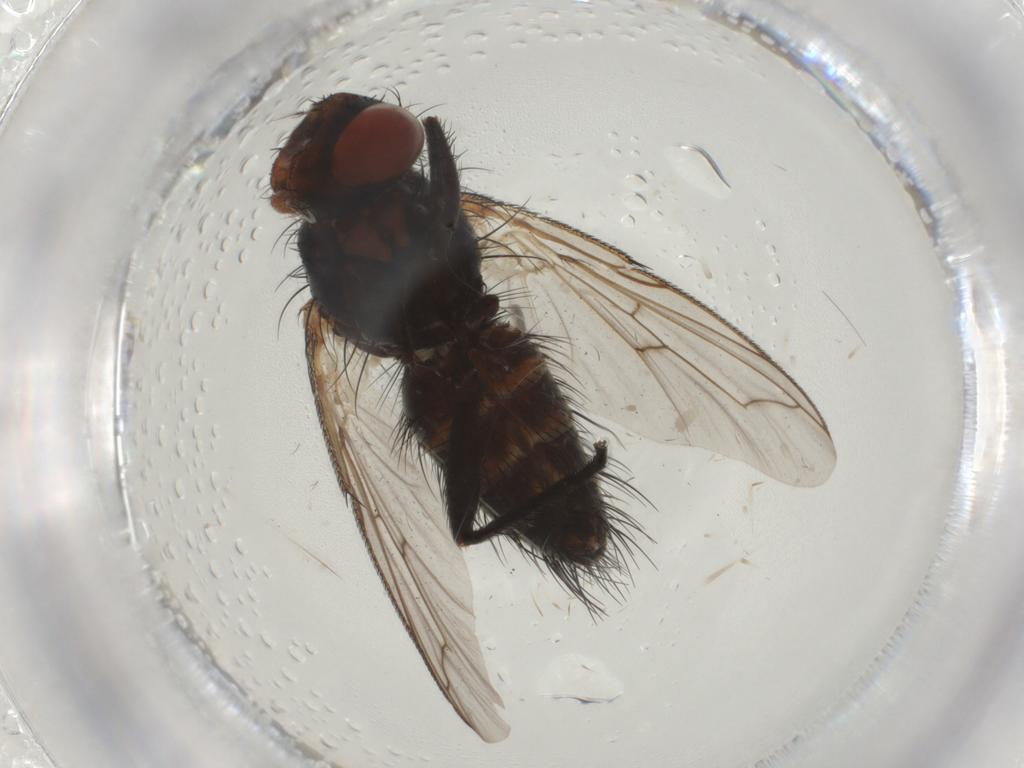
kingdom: Animalia
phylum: Arthropoda
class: Insecta
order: Diptera
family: Tachinidae
